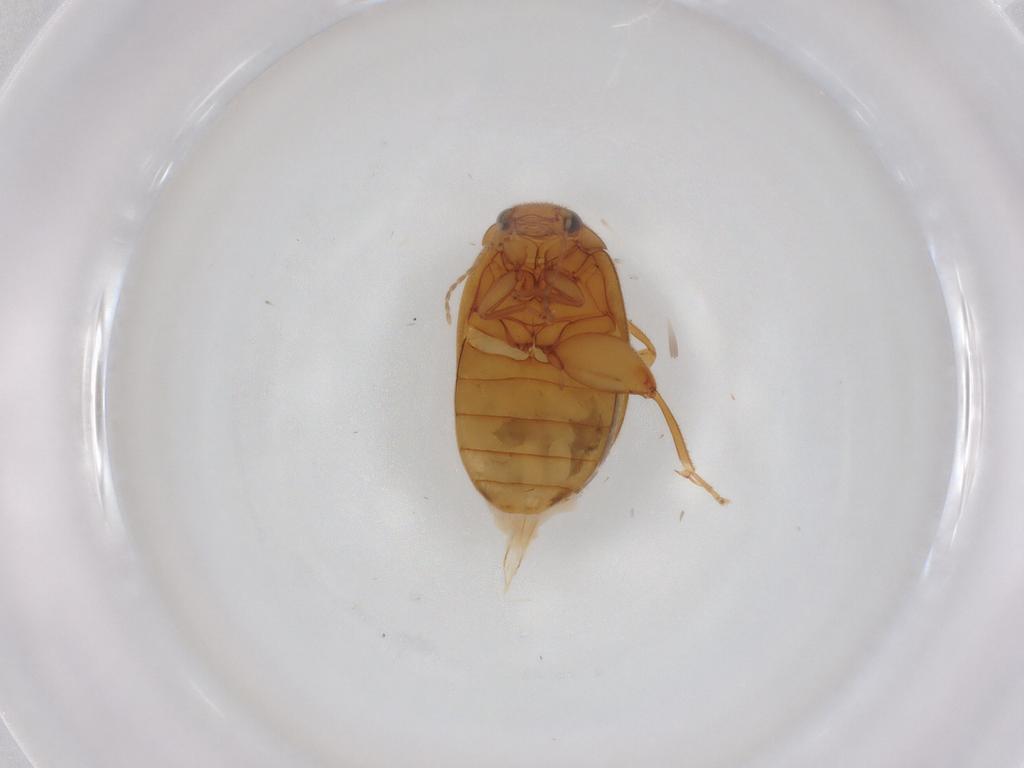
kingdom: Animalia
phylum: Arthropoda
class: Insecta
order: Coleoptera
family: Scirtidae
